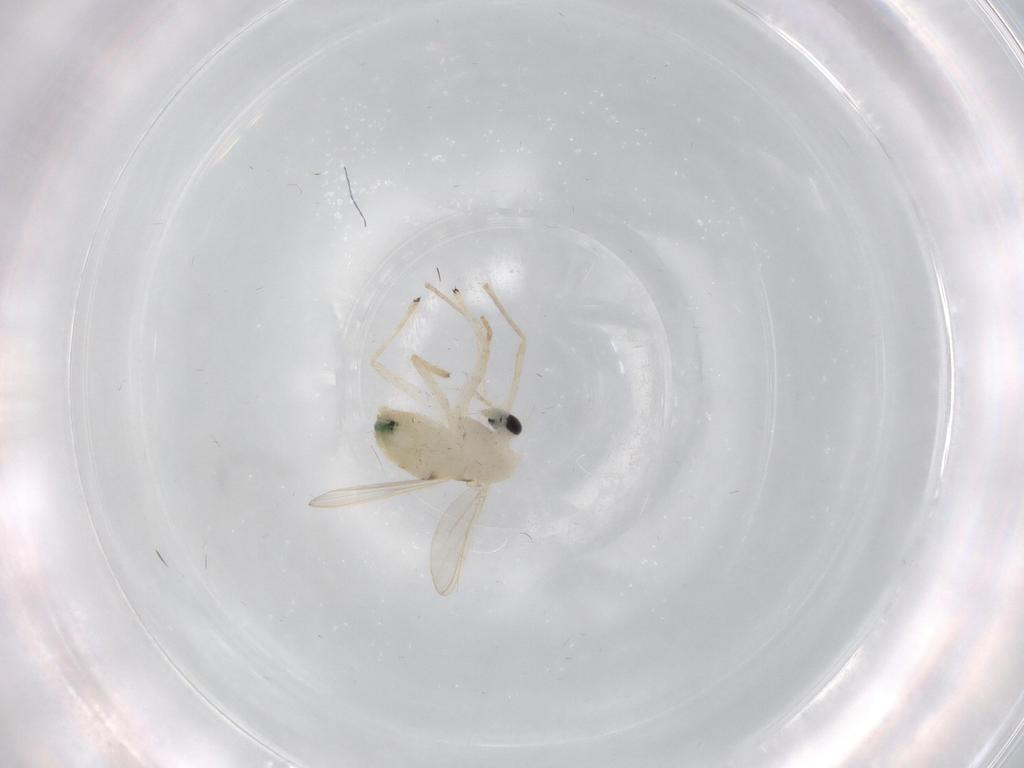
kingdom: Animalia
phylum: Arthropoda
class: Insecta
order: Diptera
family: Chironomidae
